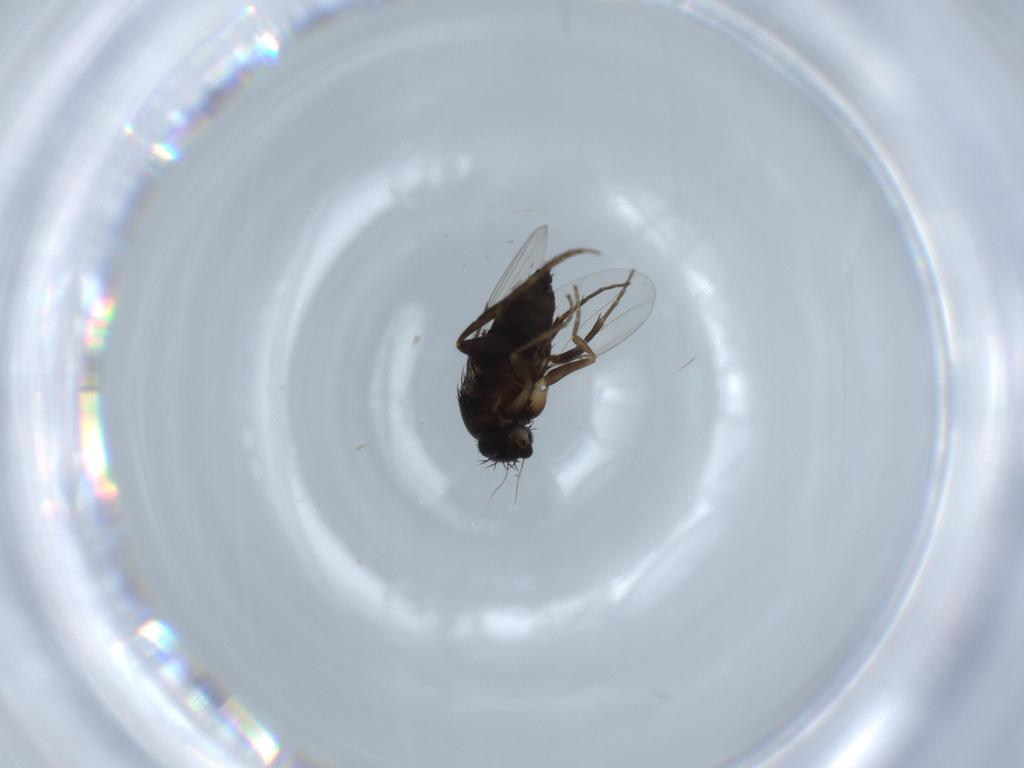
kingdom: Animalia
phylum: Arthropoda
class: Insecta
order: Diptera
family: Phoridae
